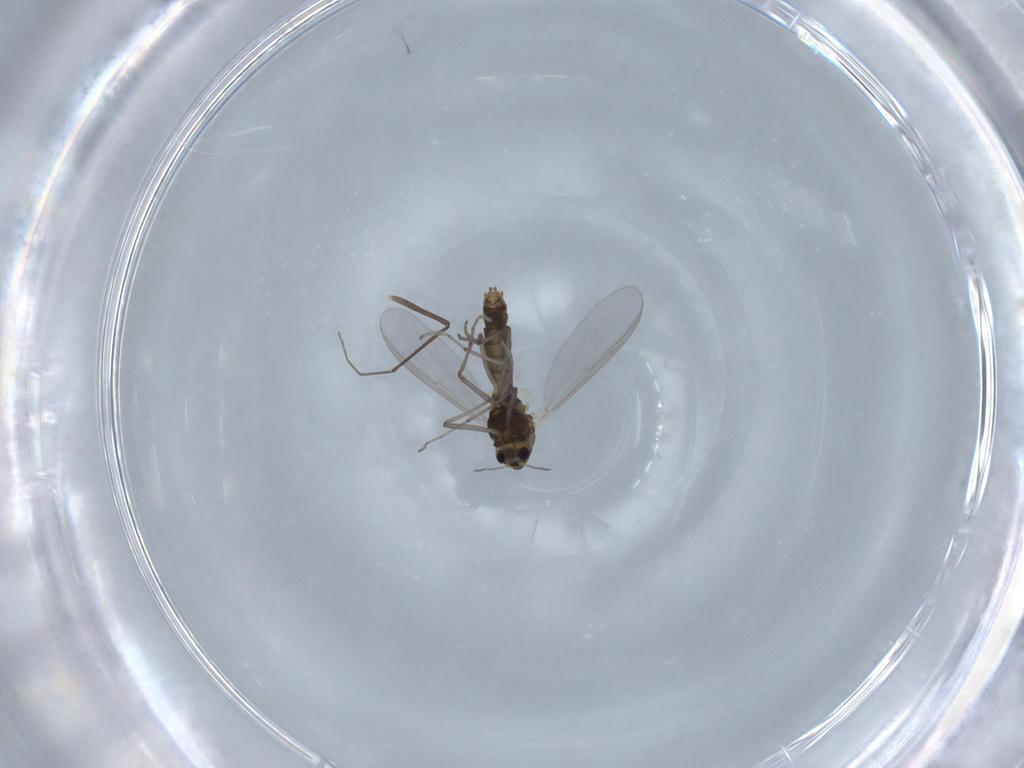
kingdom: Animalia
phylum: Arthropoda
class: Insecta
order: Diptera
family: Chironomidae
